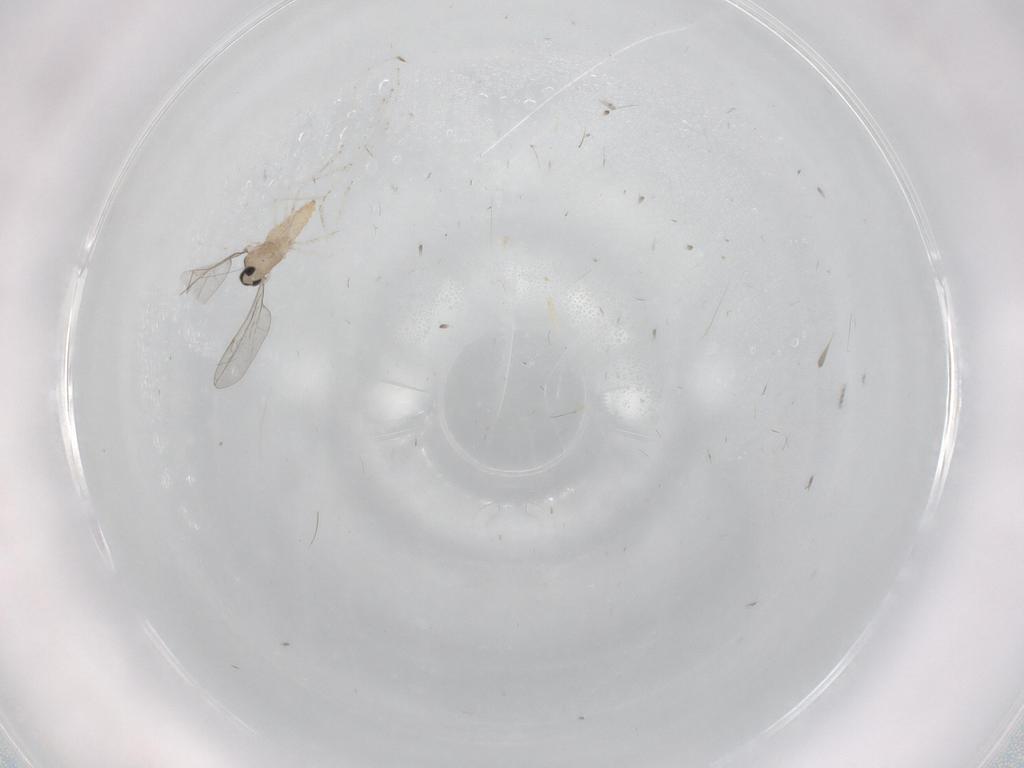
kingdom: Animalia
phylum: Arthropoda
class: Insecta
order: Diptera
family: Cecidomyiidae
